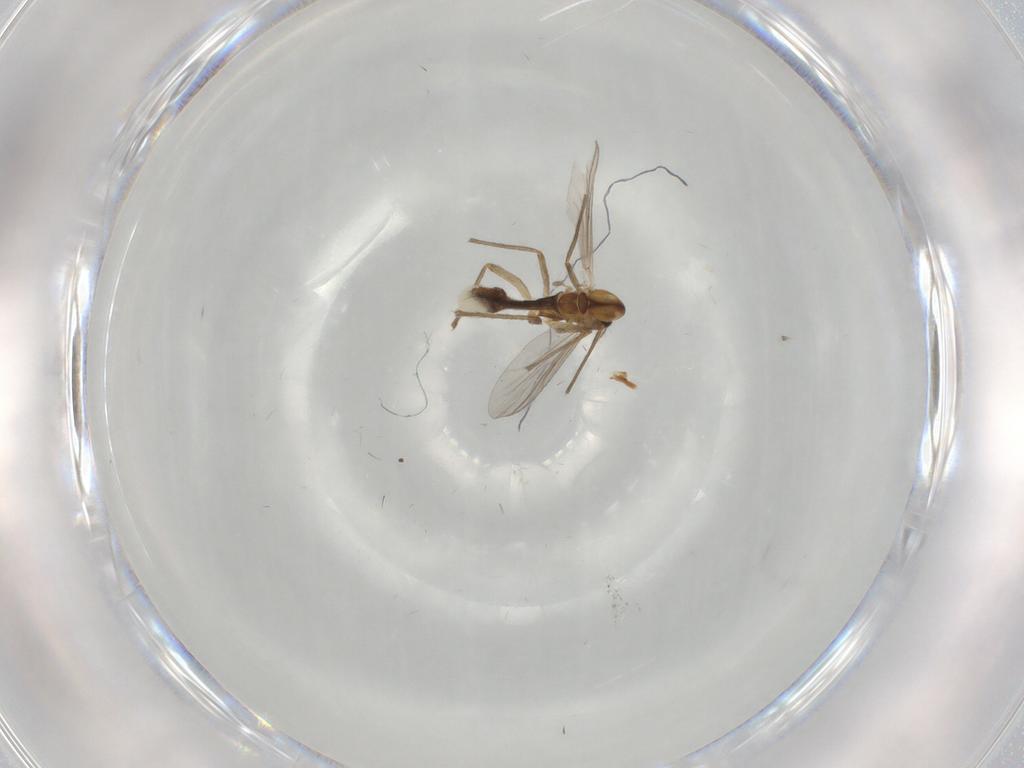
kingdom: Animalia
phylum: Arthropoda
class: Insecta
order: Diptera
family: Chironomidae
